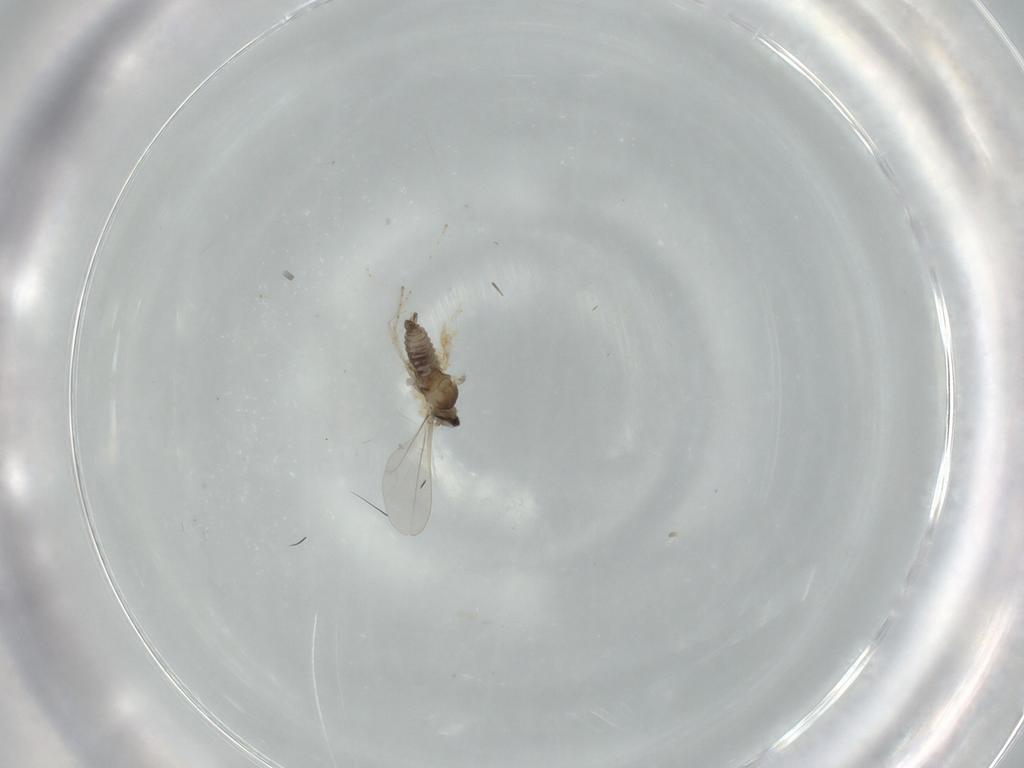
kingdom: Animalia
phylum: Arthropoda
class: Insecta
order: Diptera
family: Cecidomyiidae
